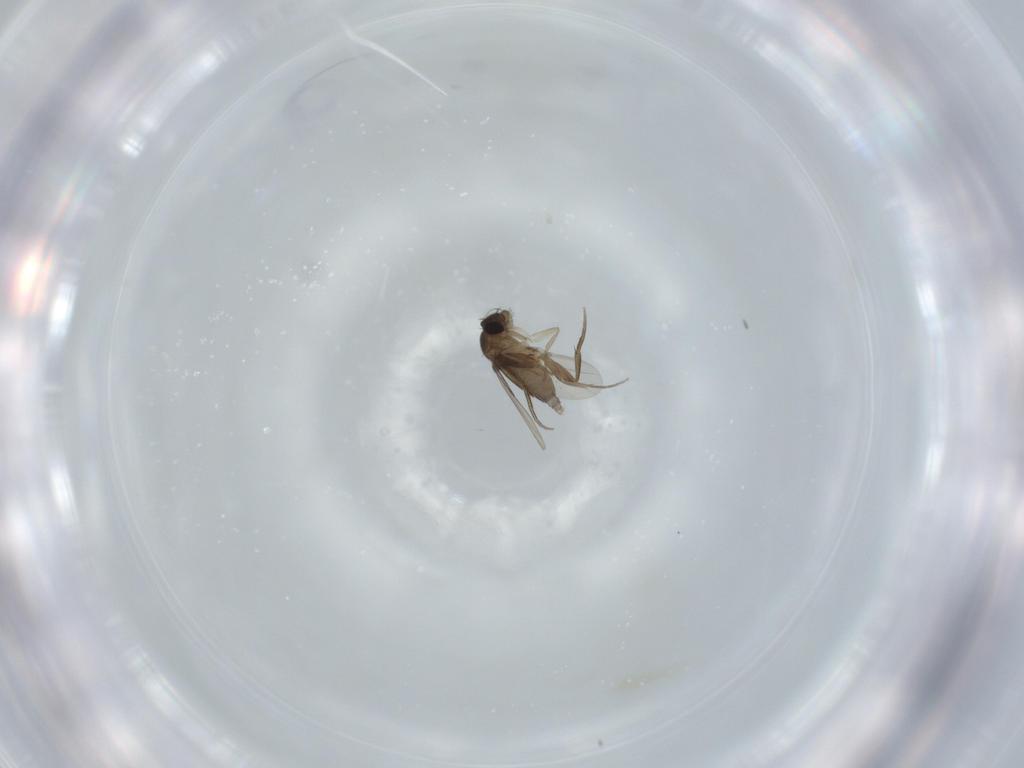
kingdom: Animalia
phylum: Arthropoda
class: Insecta
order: Diptera
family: Phoridae
